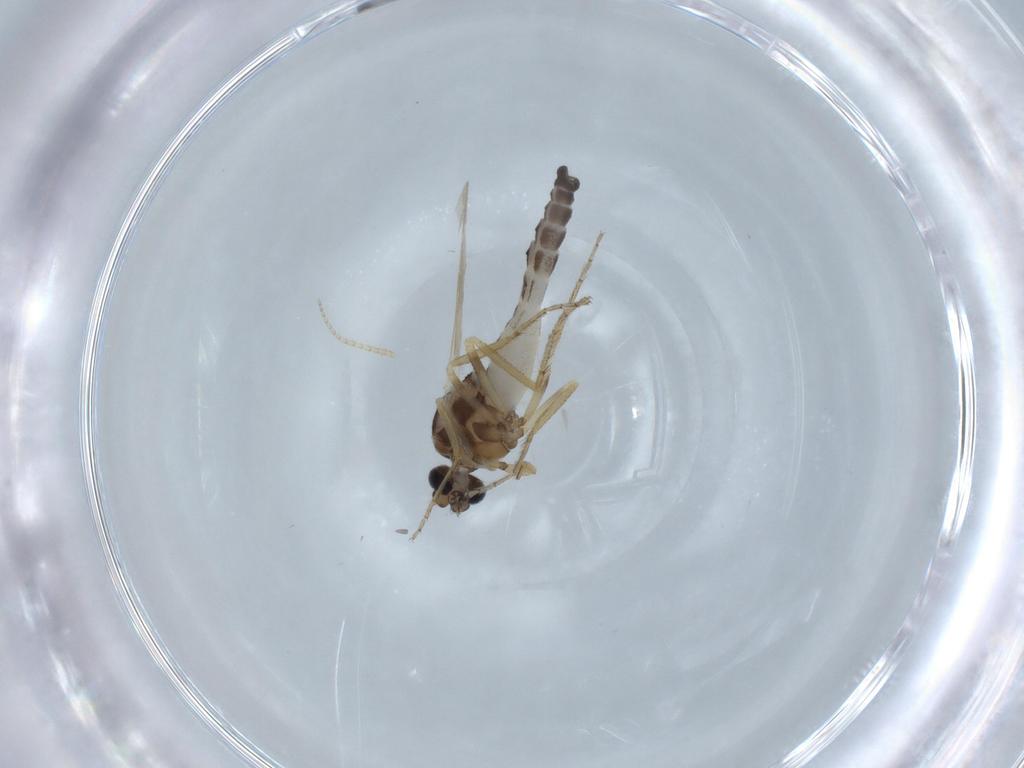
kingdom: Animalia
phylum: Arthropoda
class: Insecta
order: Diptera
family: Ceratopogonidae
